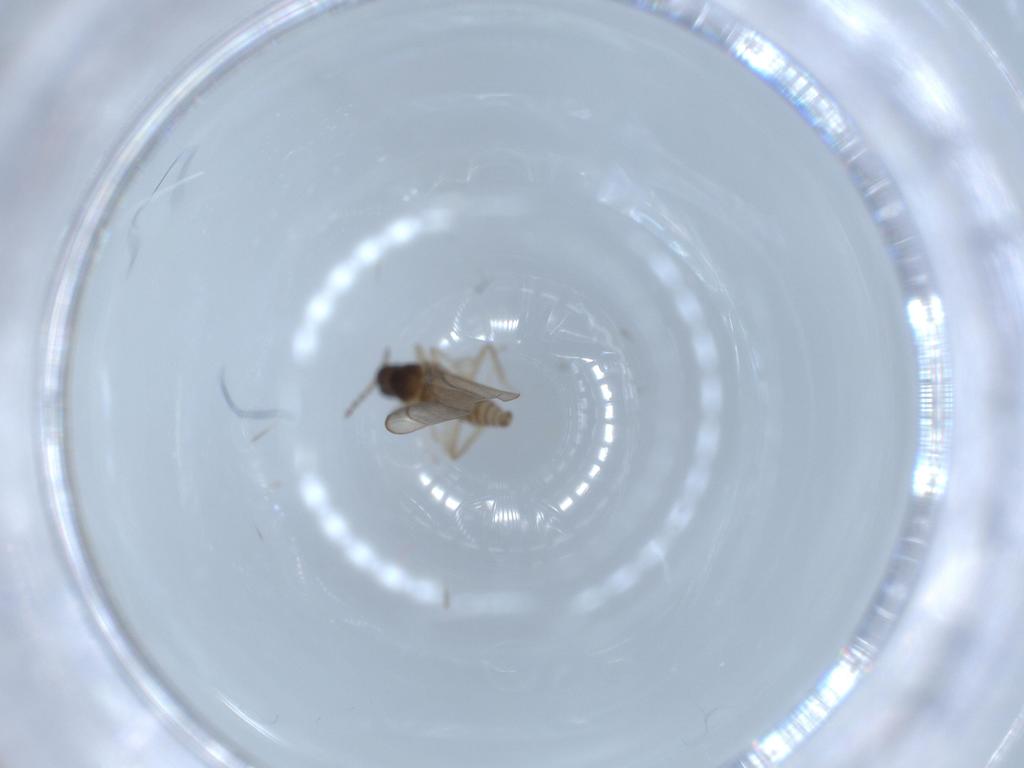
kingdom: Animalia
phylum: Arthropoda
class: Insecta
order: Diptera
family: Cecidomyiidae
